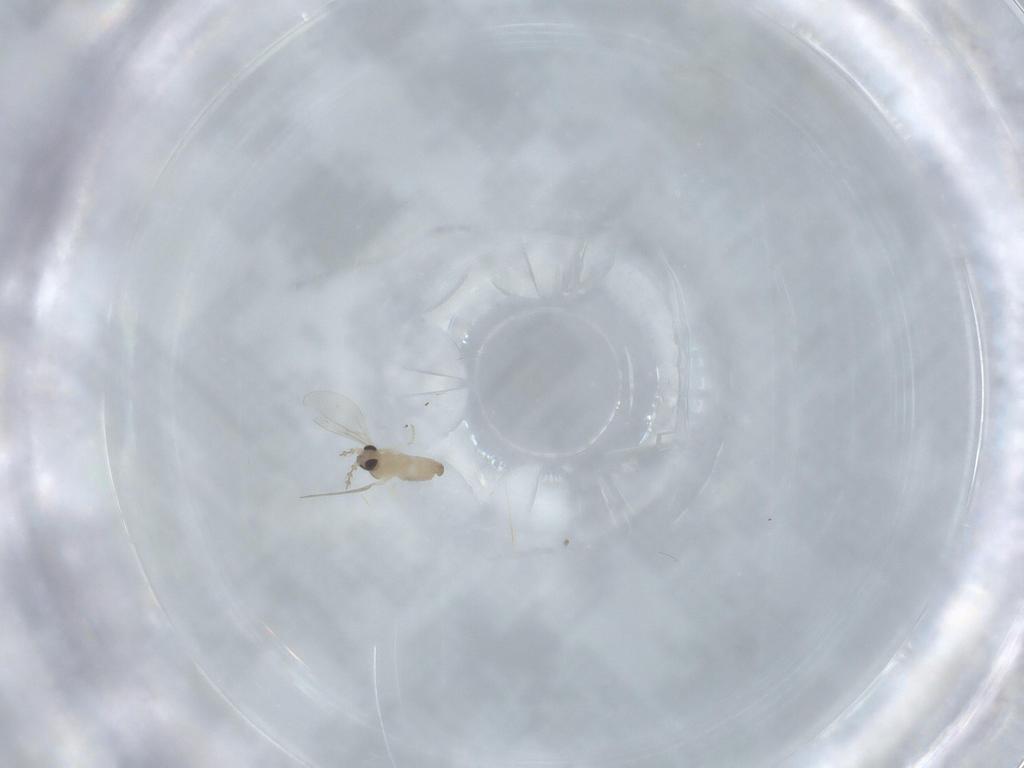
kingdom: Animalia
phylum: Arthropoda
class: Insecta
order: Diptera
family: Cecidomyiidae
